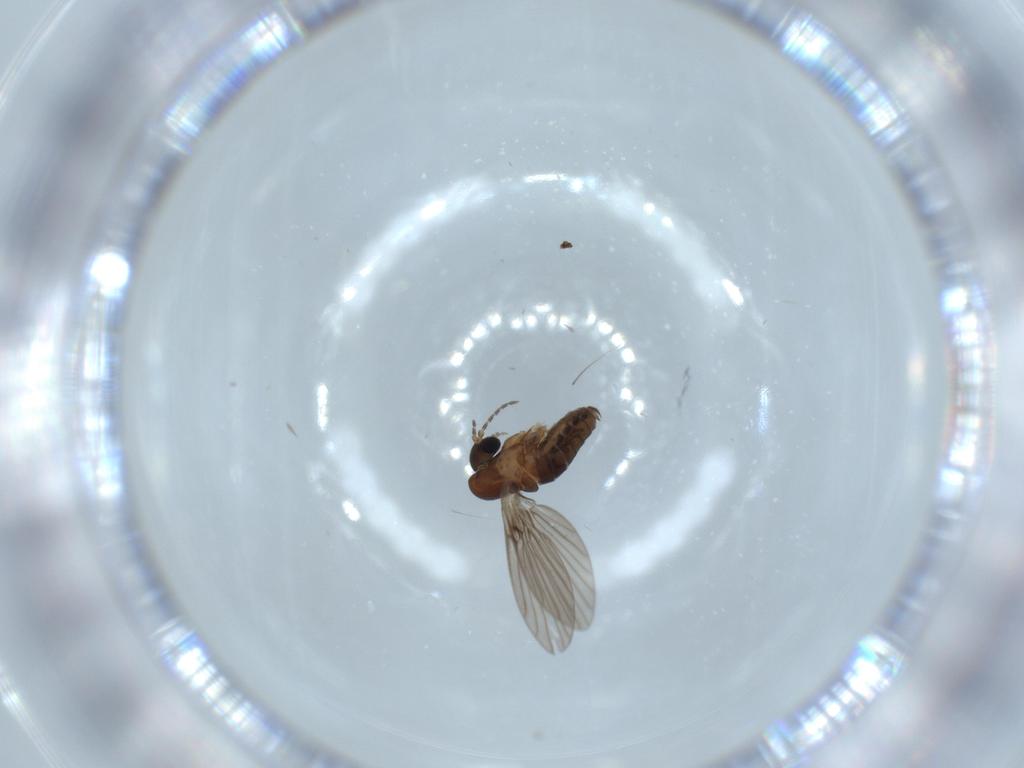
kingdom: Animalia
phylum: Arthropoda
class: Insecta
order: Diptera
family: Psychodidae
